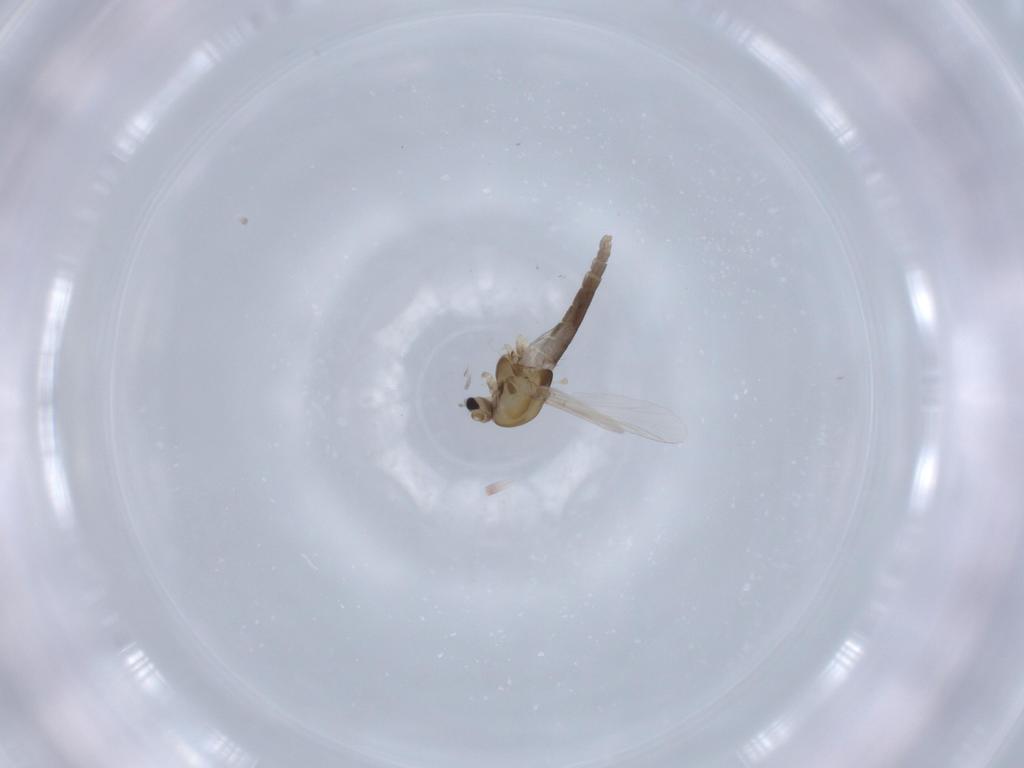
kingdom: Animalia
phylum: Arthropoda
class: Insecta
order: Diptera
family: Chironomidae
